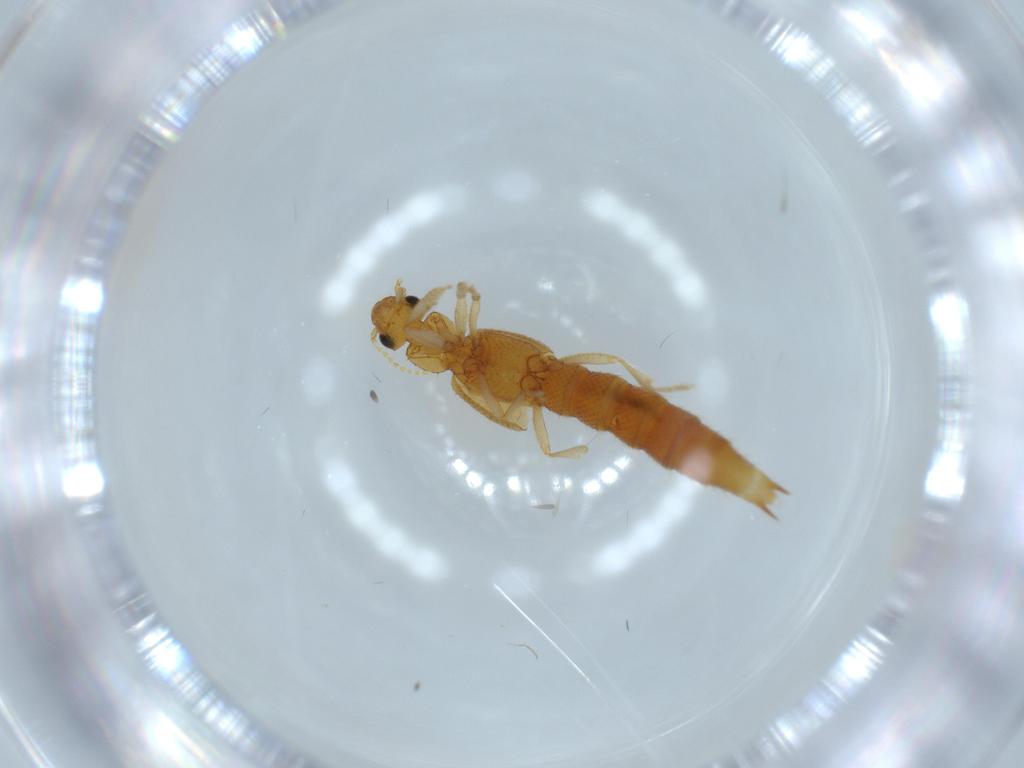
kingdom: Animalia
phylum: Arthropoda
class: Insecta
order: Coleoptera
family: Staphylinidae
